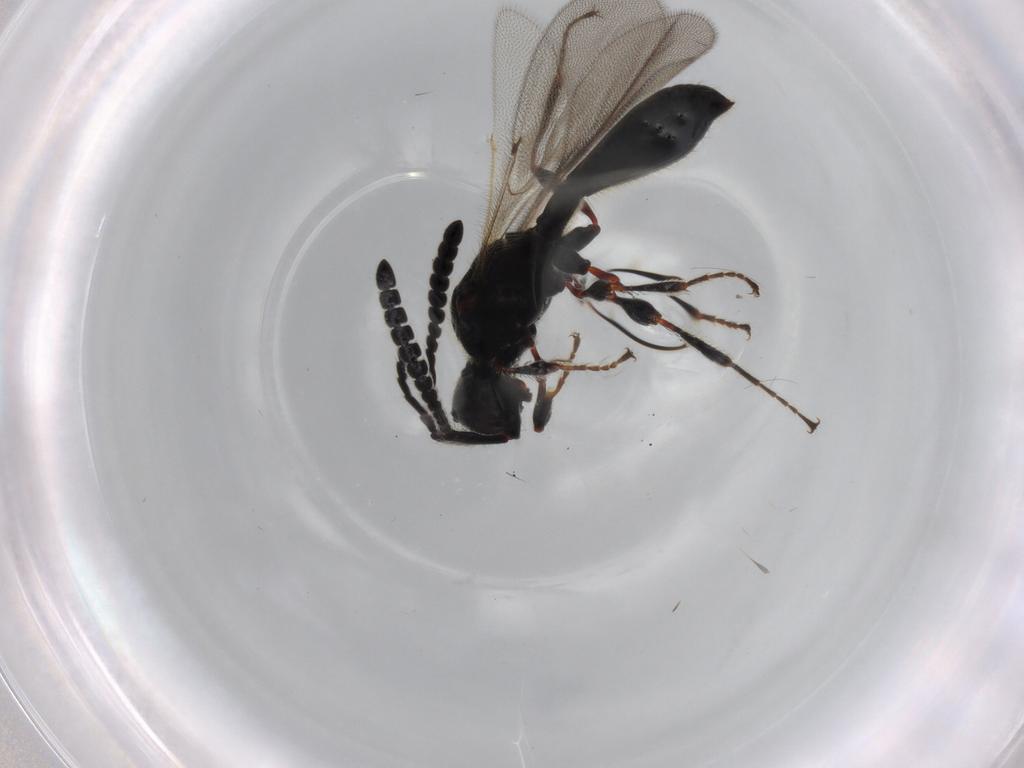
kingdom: Animalia
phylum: Arthropoda
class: Insecta
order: Hymenoptera
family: Diapriidae
